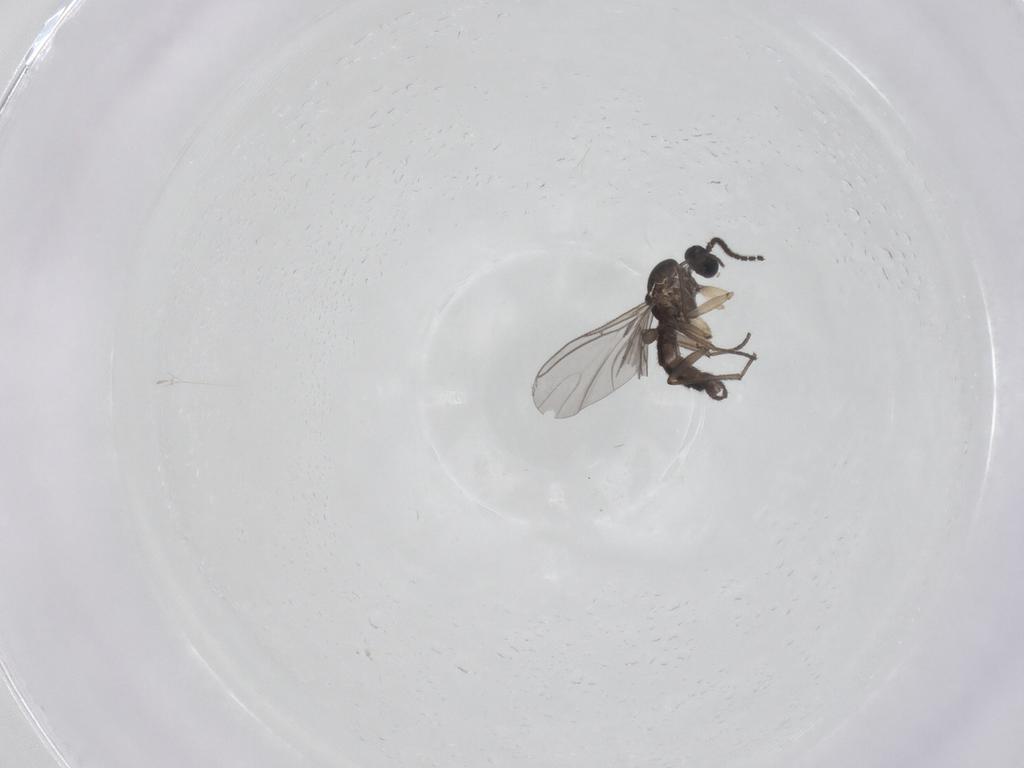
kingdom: Animalia
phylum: Arthropoda
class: Insecta
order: Diptera
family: Sciaridae
